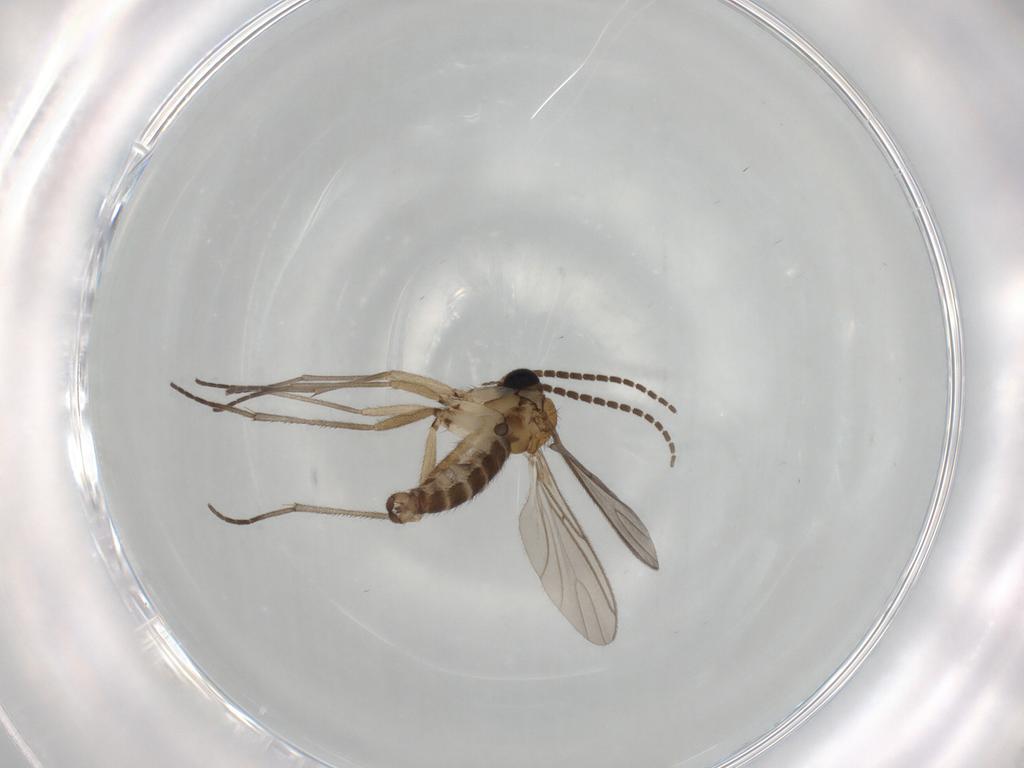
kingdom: Animalia
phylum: Arthropoda
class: Insecta
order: Diptera
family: Sciaridae
